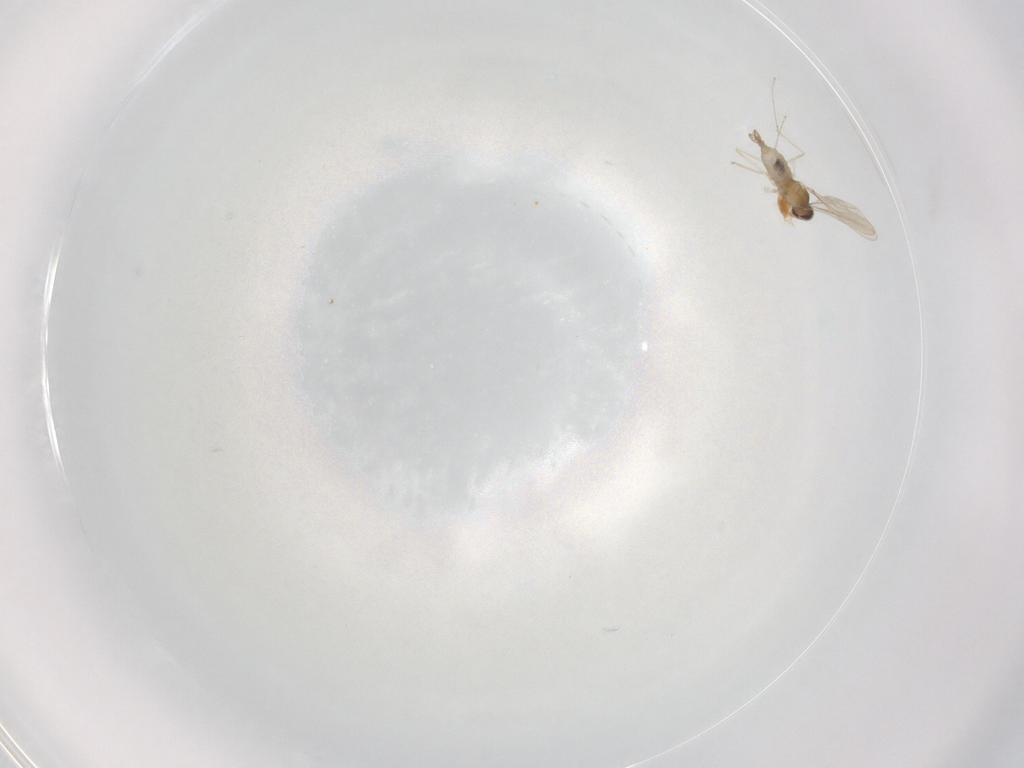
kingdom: Animalia
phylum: Arthropoda
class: Insecta
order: Diptera
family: Cecidomyiidae
